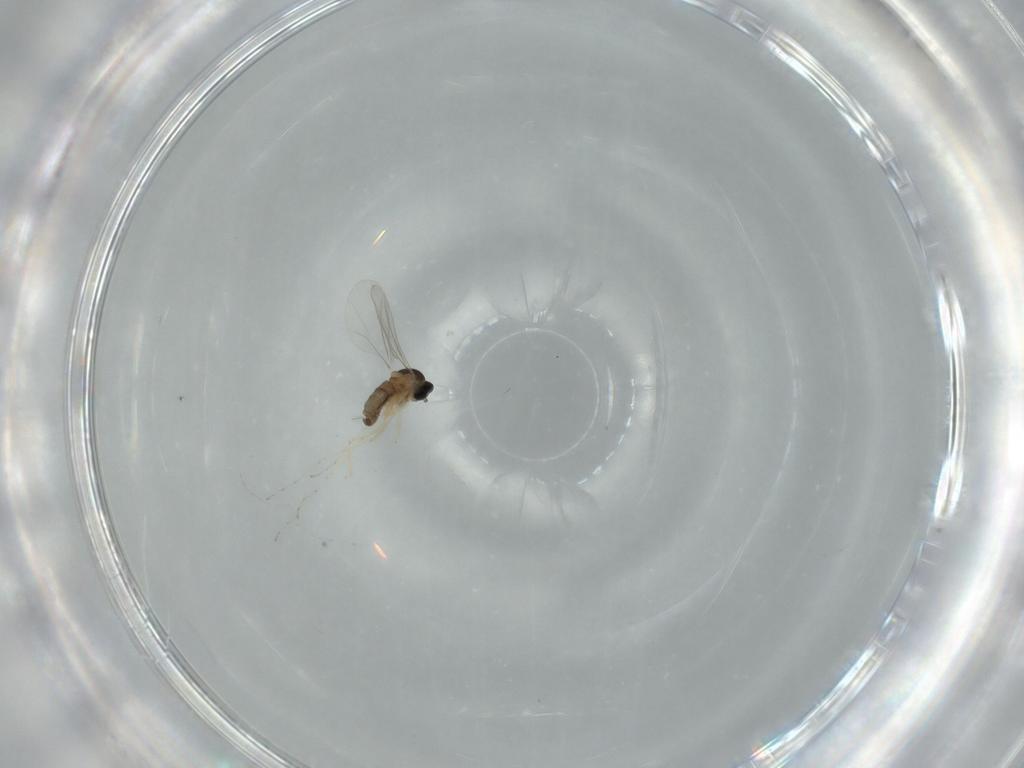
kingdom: Animalia
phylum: Arthropoda
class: Insecta
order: Diptera
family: Cecidomyiidae
